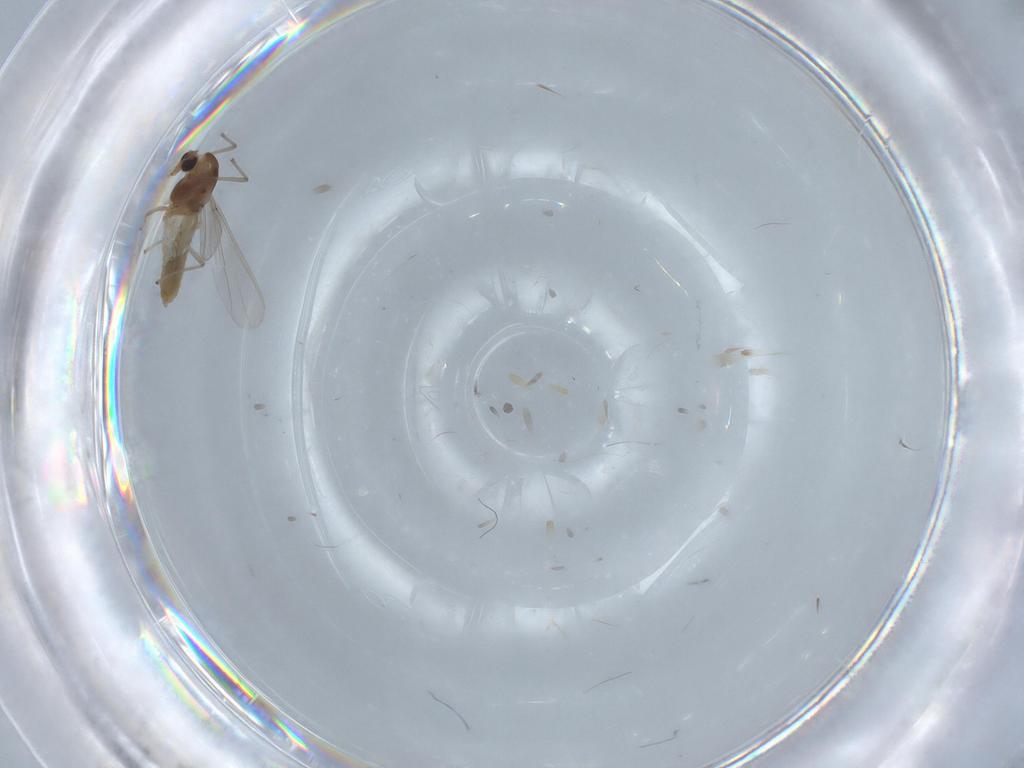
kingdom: Animalia
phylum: Arthropoda
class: Insecta
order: Diptera
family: Chironomidae
